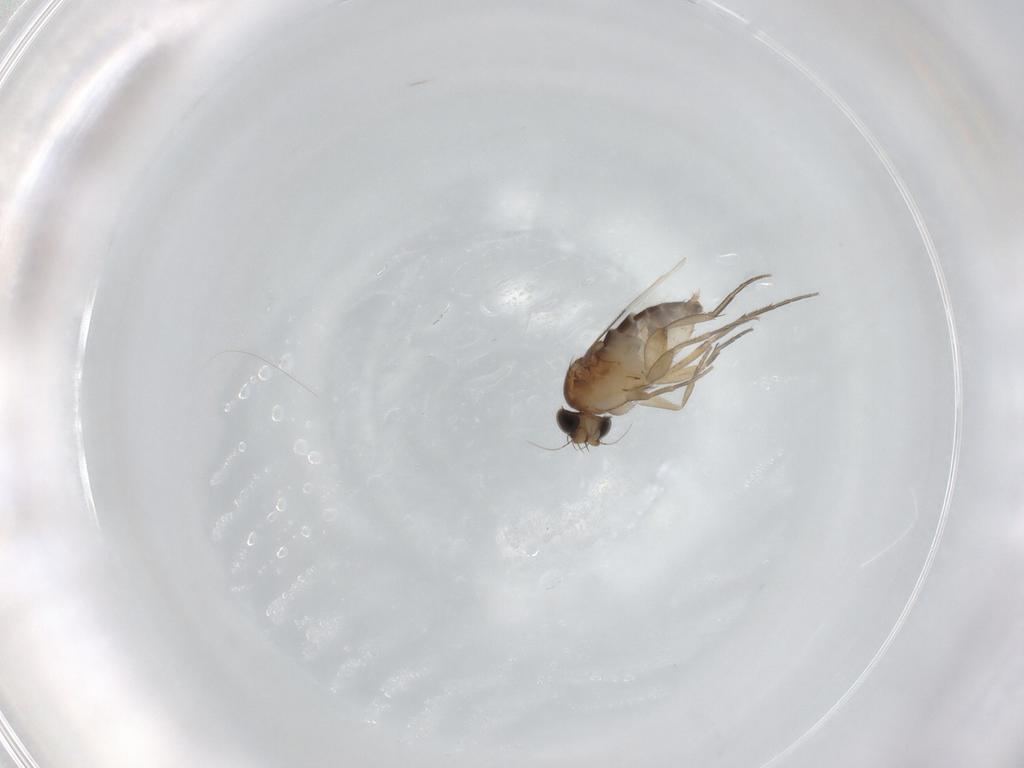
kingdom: Animalia
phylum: Arthropoda
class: Insecta
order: Diptera
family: Phoridae
